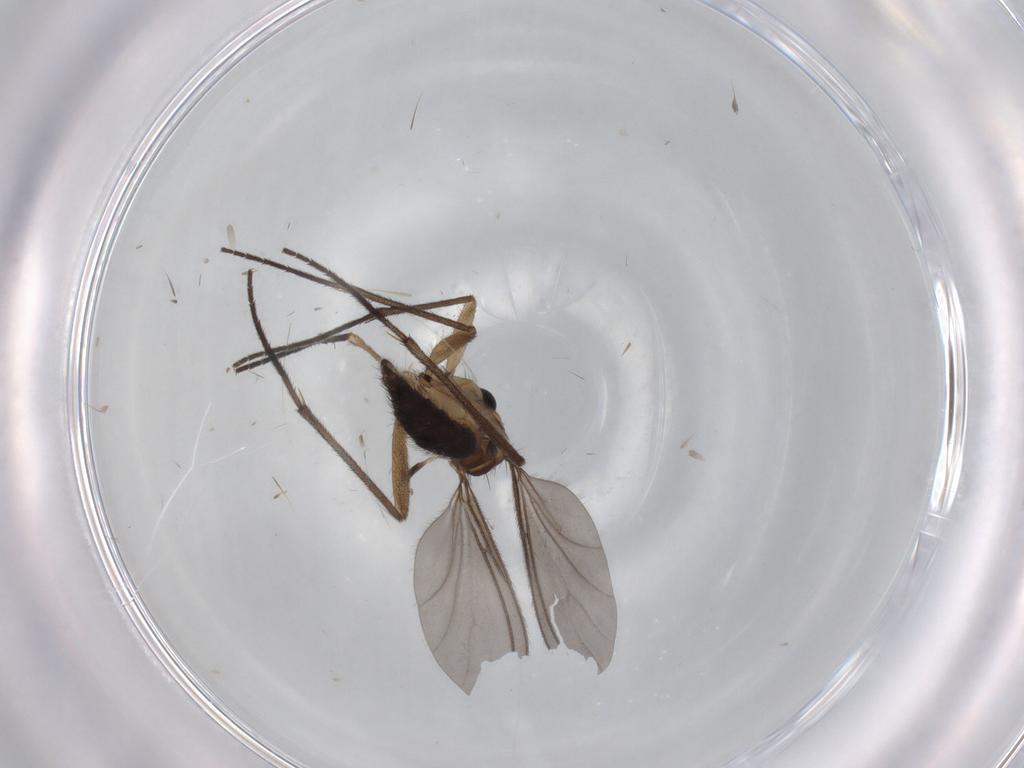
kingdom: Animalia
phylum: Arthropoda
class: Insecta
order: Diptera
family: Sciaridae
